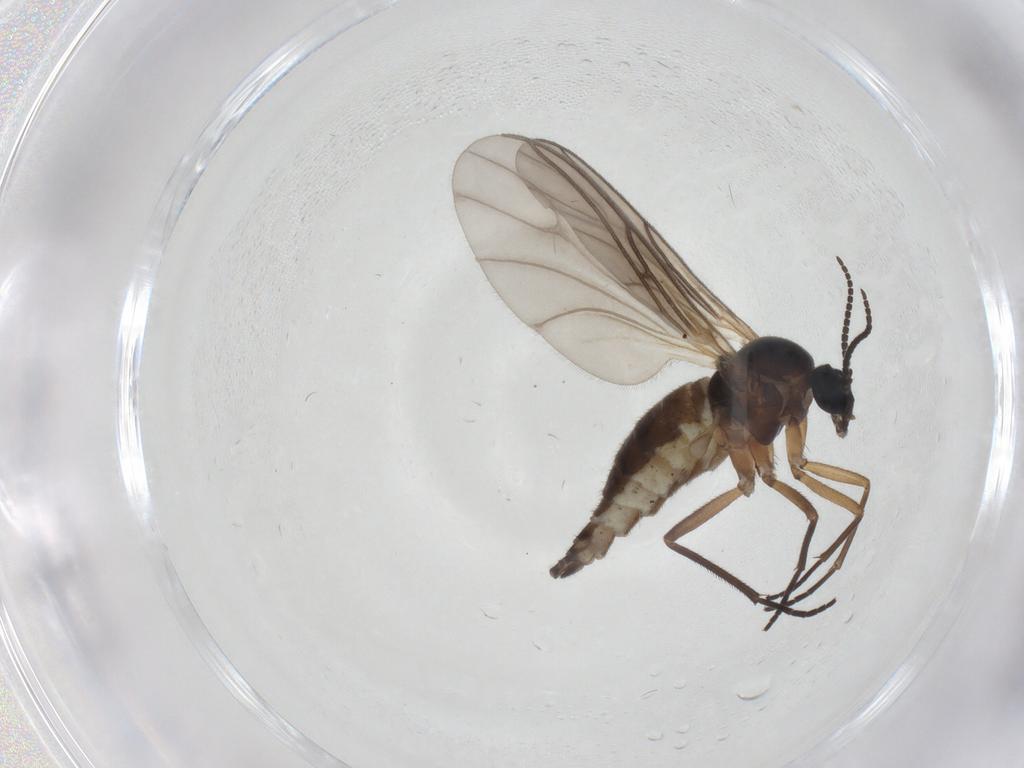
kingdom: Animalia
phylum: Arthropoda
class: Insecta
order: Diptera
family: Sciaridae
